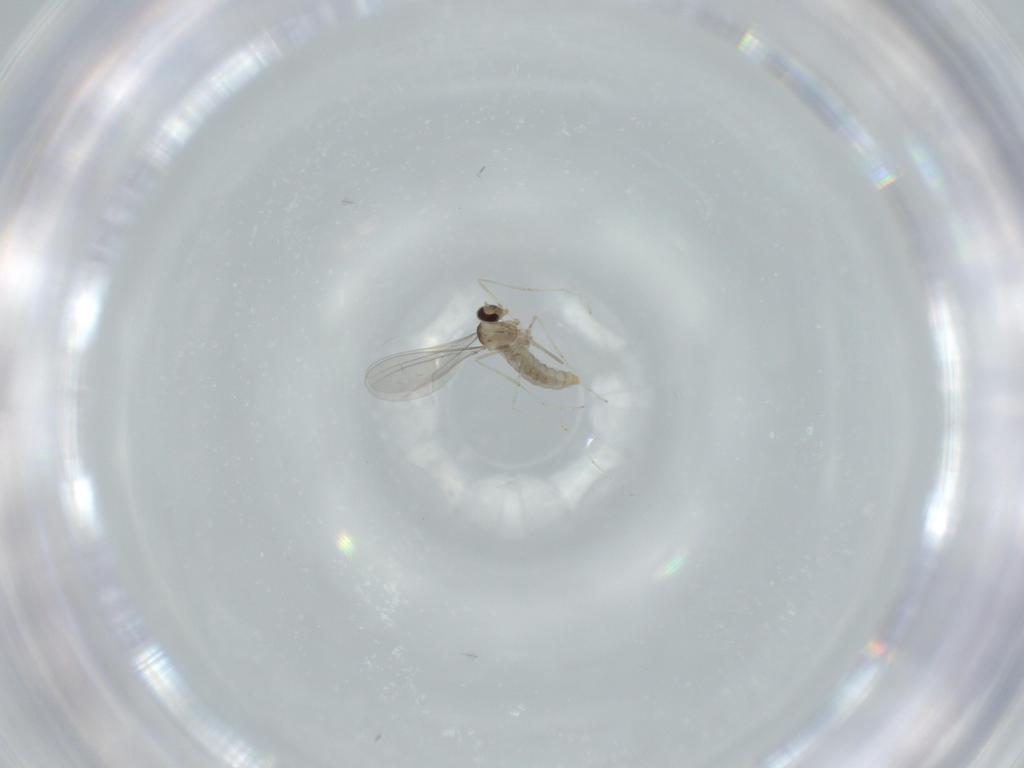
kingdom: Animalia
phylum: Arthropoda
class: Insecta
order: Diptera
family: Cecidomyiidae
